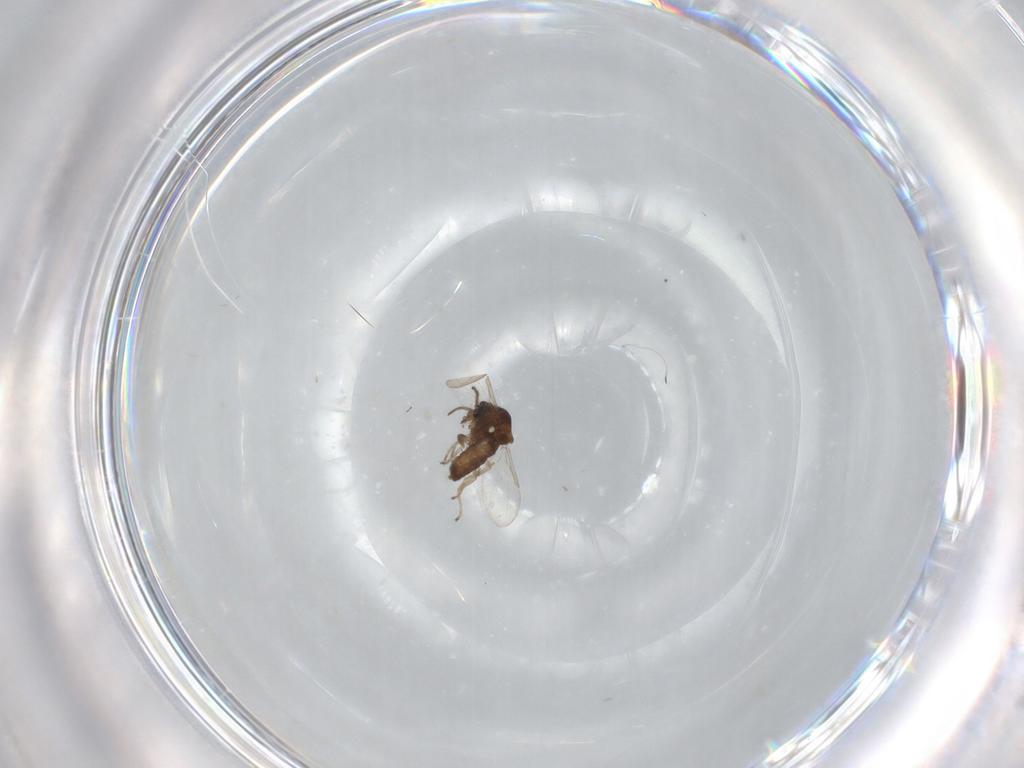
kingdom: Animalia
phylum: Arthropoda
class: Insecta
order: Diptera
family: Ceratopogonidae
